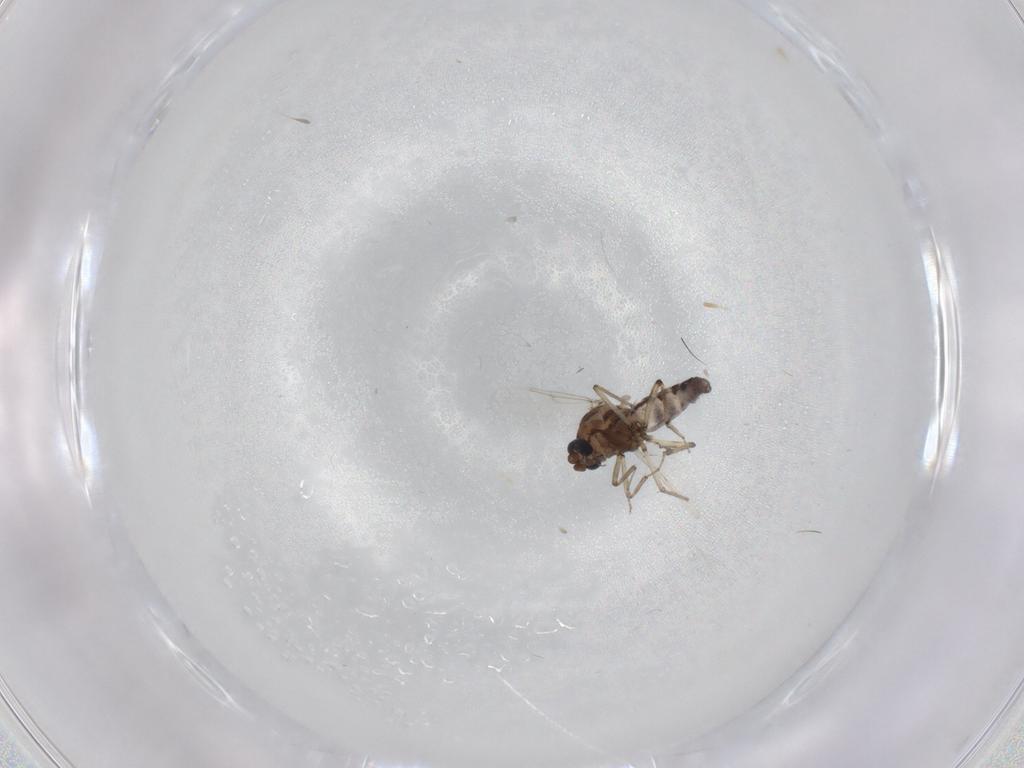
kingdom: Animalia
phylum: Arthropoda
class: Insecta
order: Diptera
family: Ceratopogonidae
